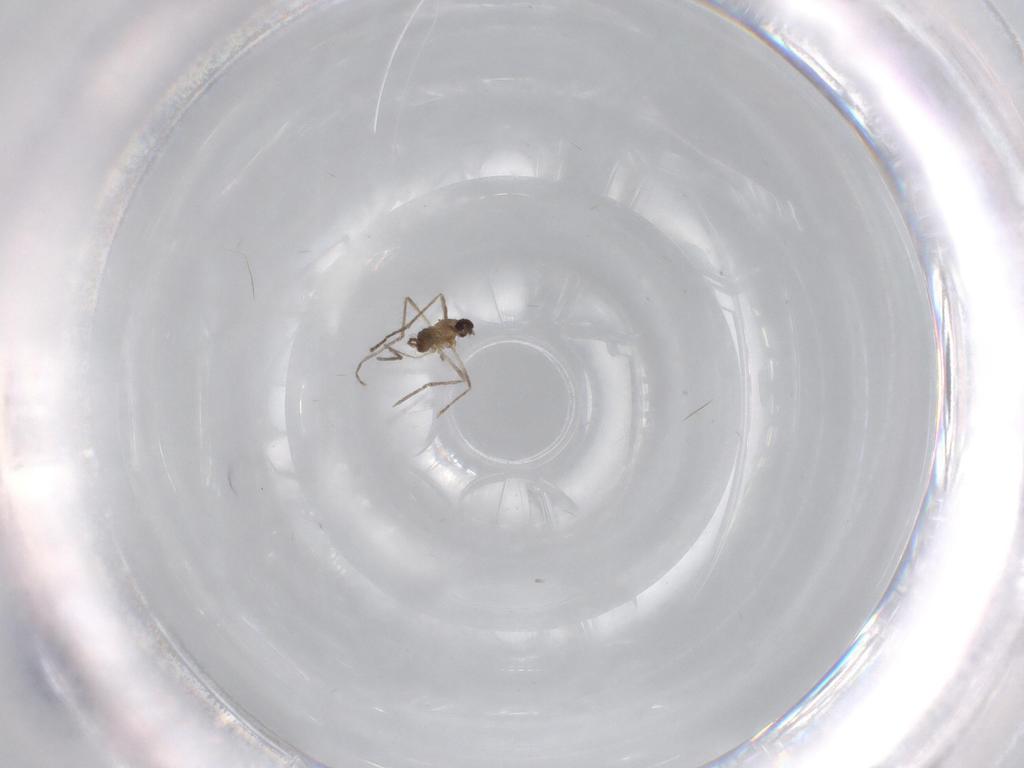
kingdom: Animalia
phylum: Arthropoda
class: Insecta
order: Diptera
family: Cecidomyiidae
